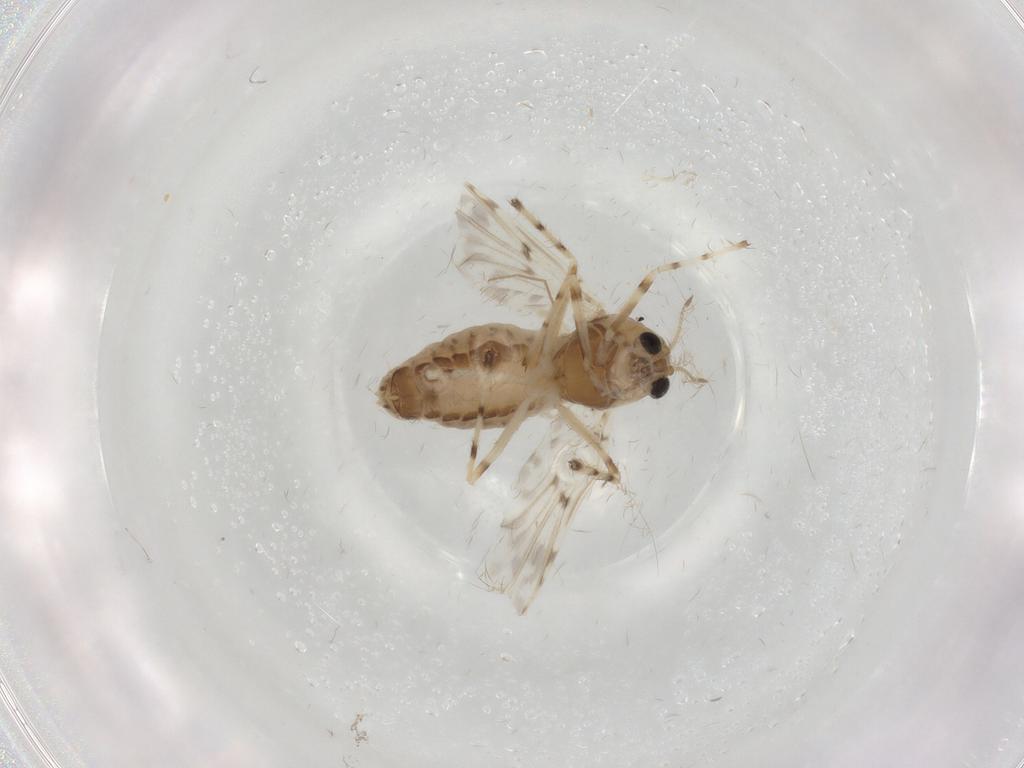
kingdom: Animalia
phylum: Arthropoda
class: Insecta
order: Diptera
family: Chironomidae
